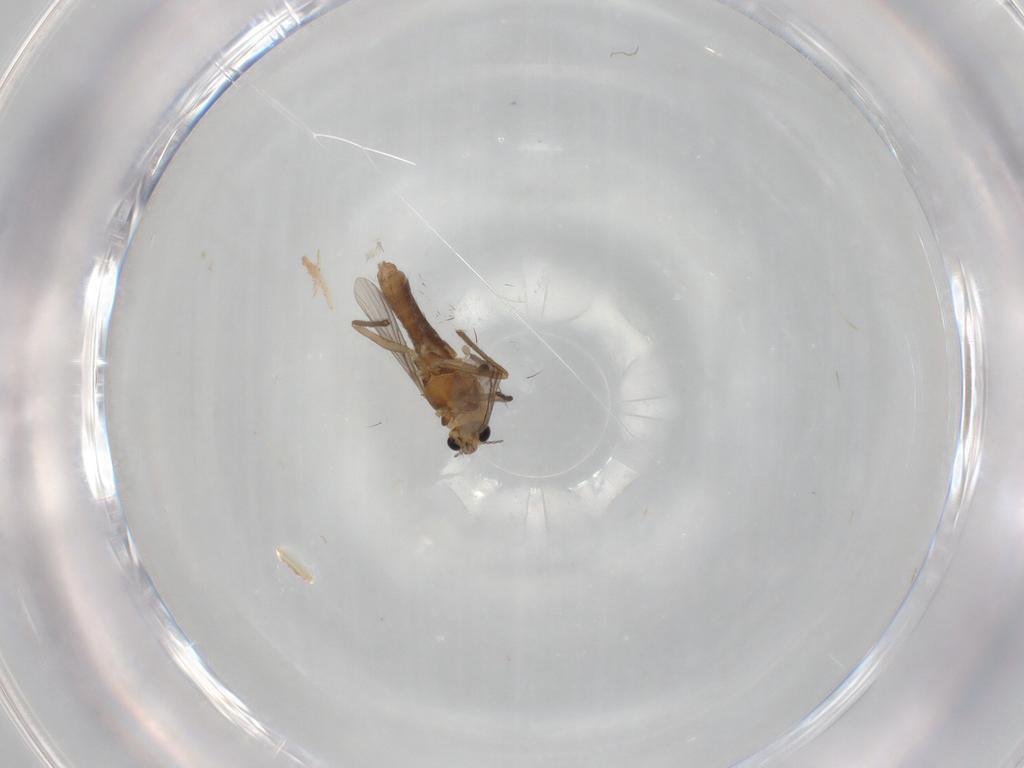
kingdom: Animalia
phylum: Arthropoda
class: Insecta
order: Diptera
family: Chironomidae
